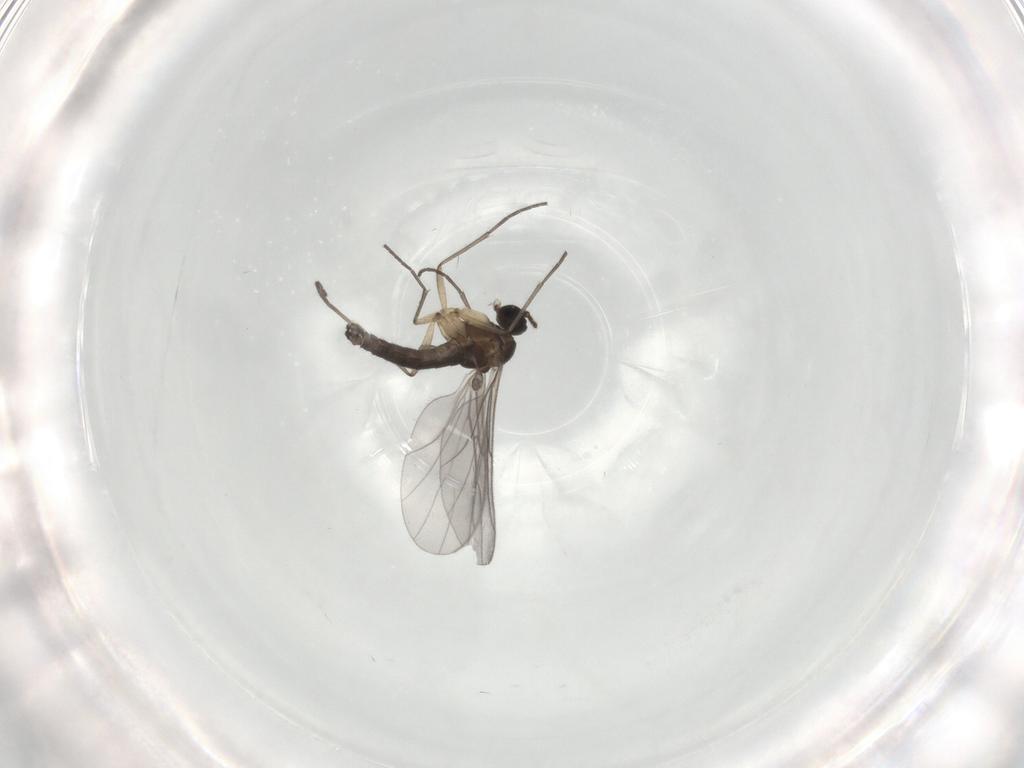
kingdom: Animalia
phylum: Arthropoda
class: Insecta
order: Diptera
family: Sciaridae
